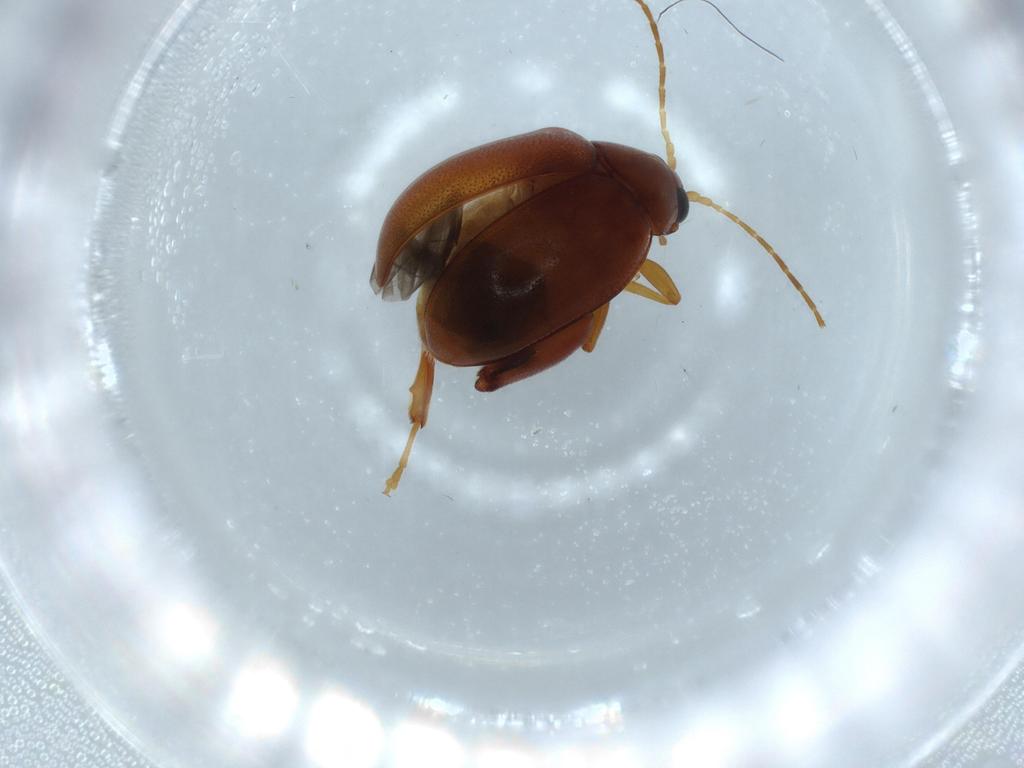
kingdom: Animalia
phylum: Arthropoda
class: Insecta
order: Coleoptera
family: Chrysomelidae
